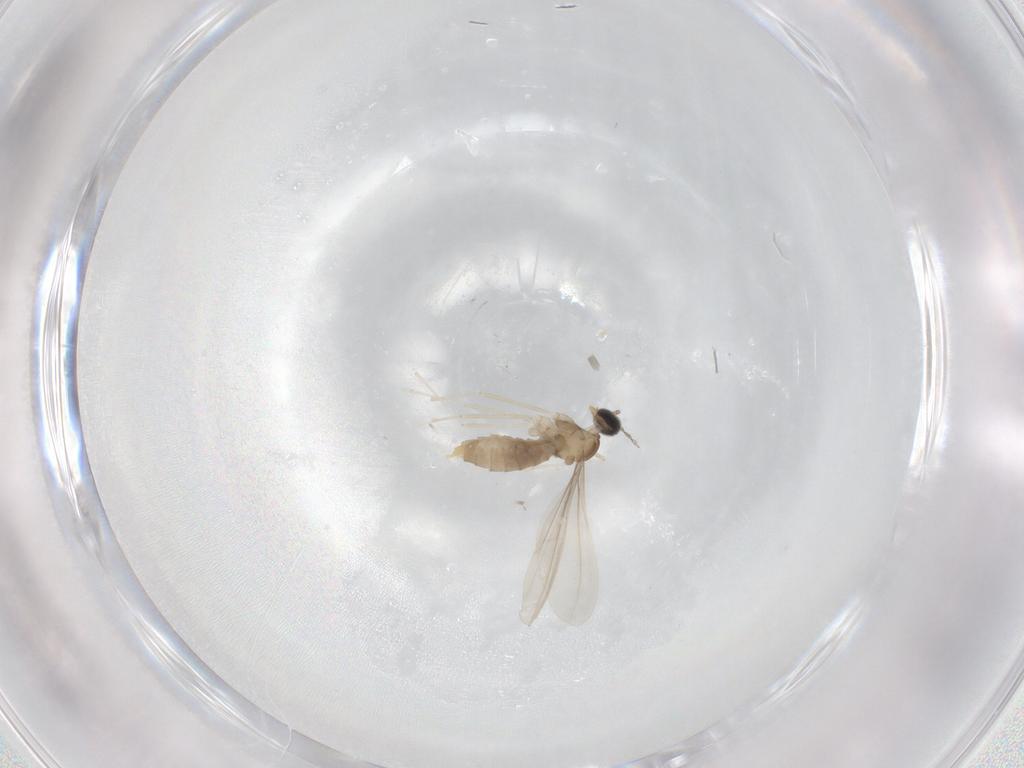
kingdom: Animalia
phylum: Arthropoda
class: Insecta
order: Diptera
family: Cecidomyiidae
